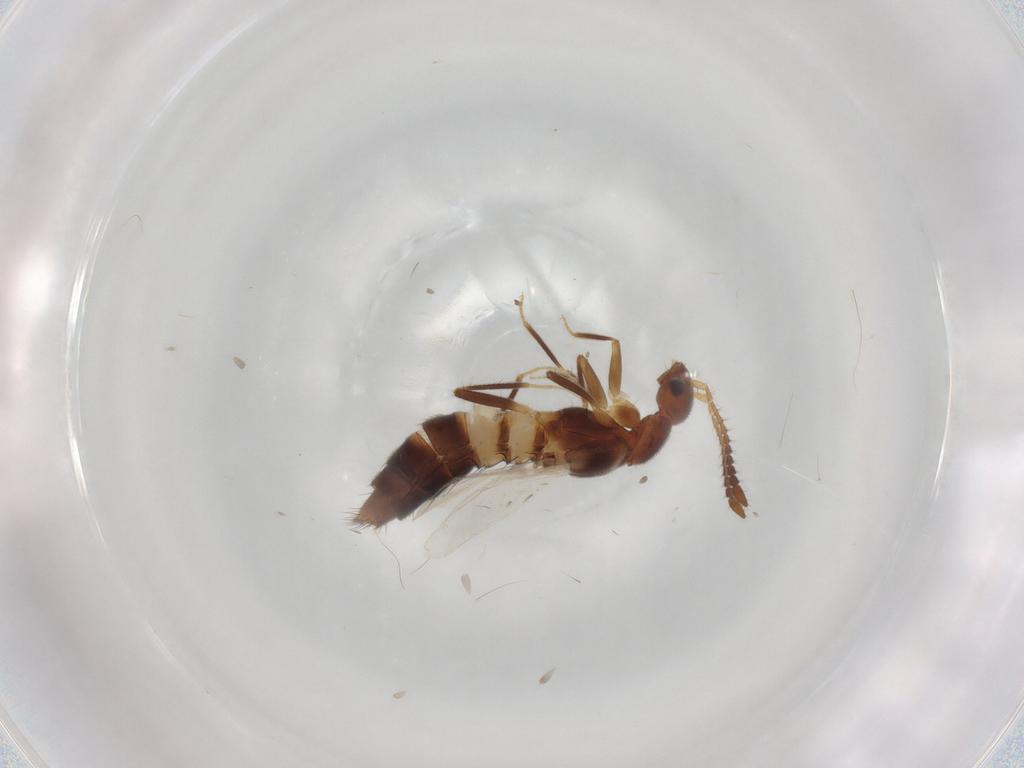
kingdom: Animalia
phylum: Arthropoda
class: Insecta
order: Coleoptera
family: Staphylinidae
